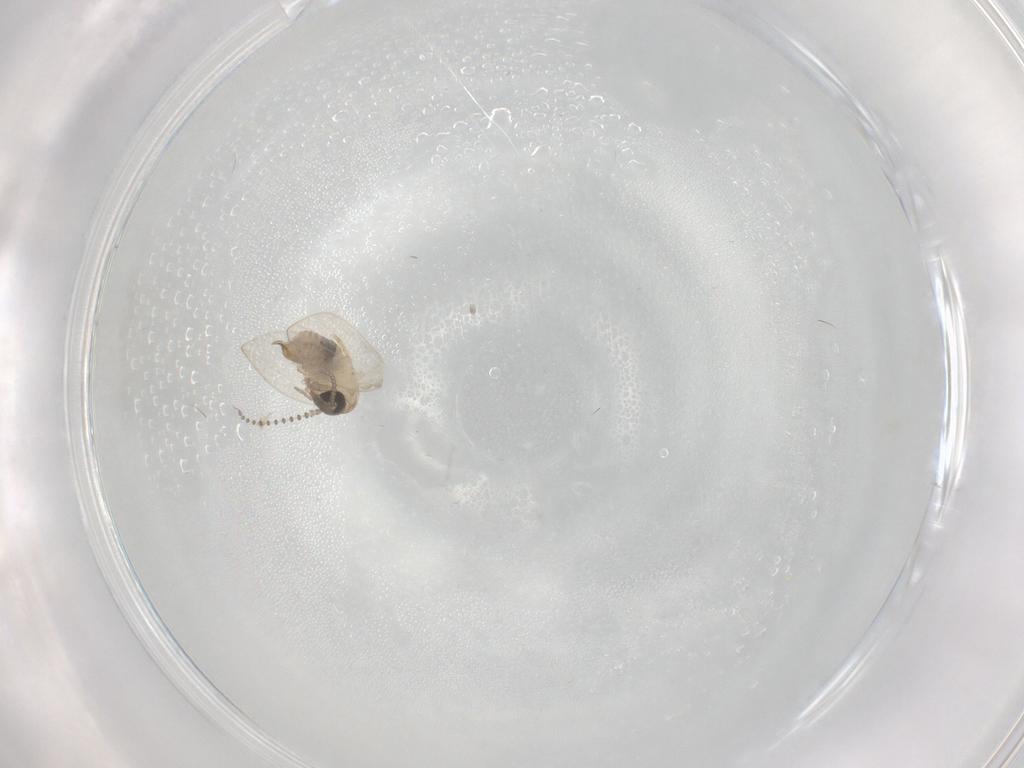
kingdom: Animalia
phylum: Arthropoda
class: Insecta
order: Diptera
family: Psychodidae
